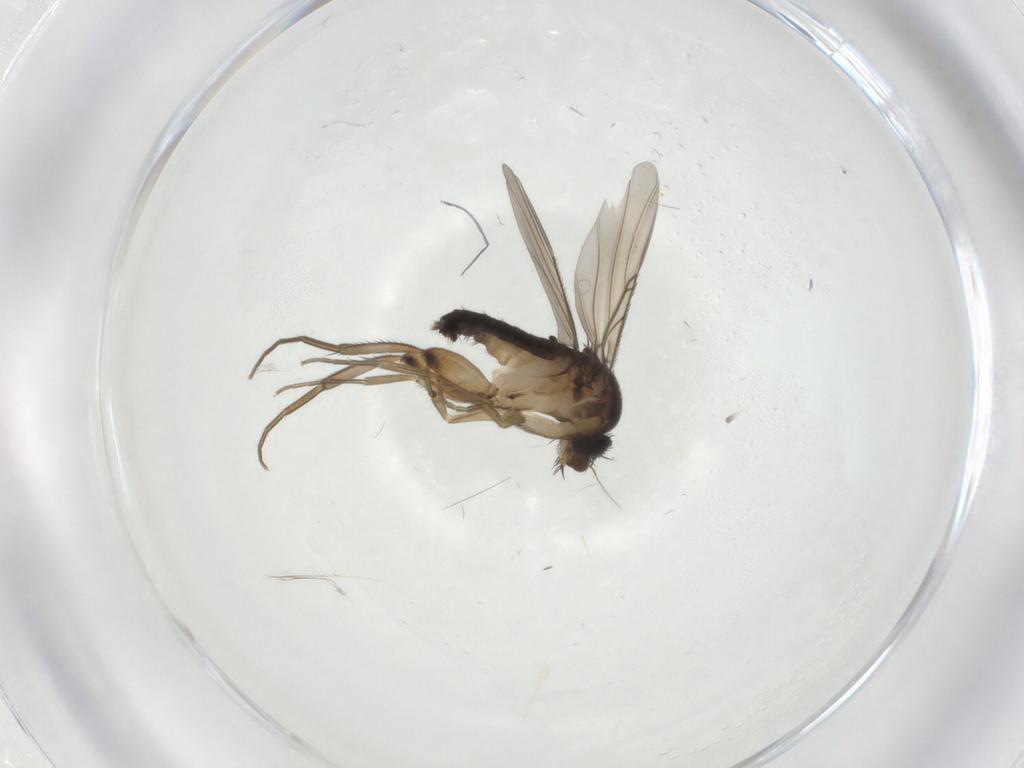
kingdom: Animalia
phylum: Arthropoda
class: Insecta
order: Diptera
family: Phoridae
